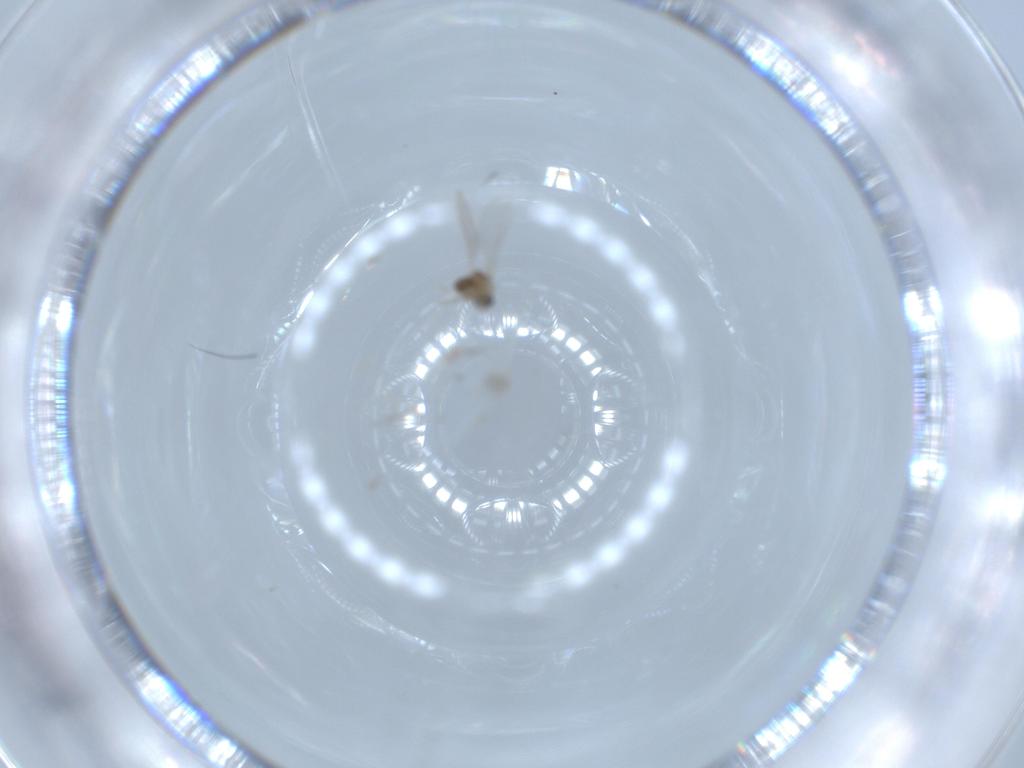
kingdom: Animalia
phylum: Arthropoda
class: Insecta
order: Diptera
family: Cecidomyiidae
